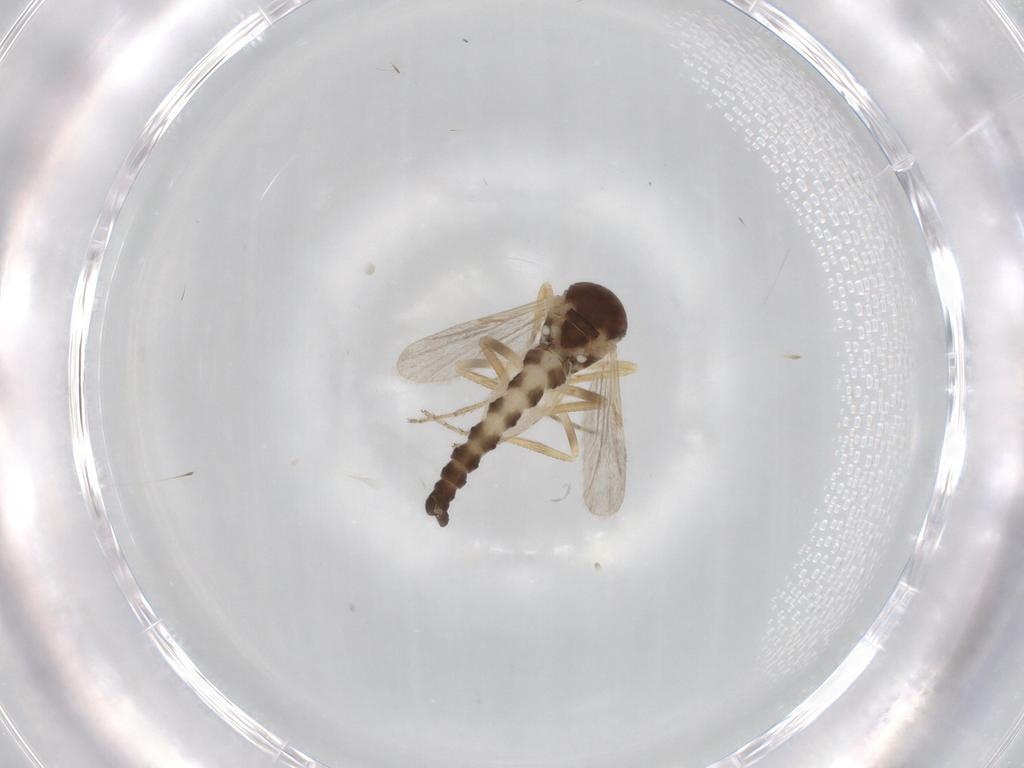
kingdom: Animalia
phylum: Arthropoda
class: Insecta
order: Diptera
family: Ceratopogonidae
